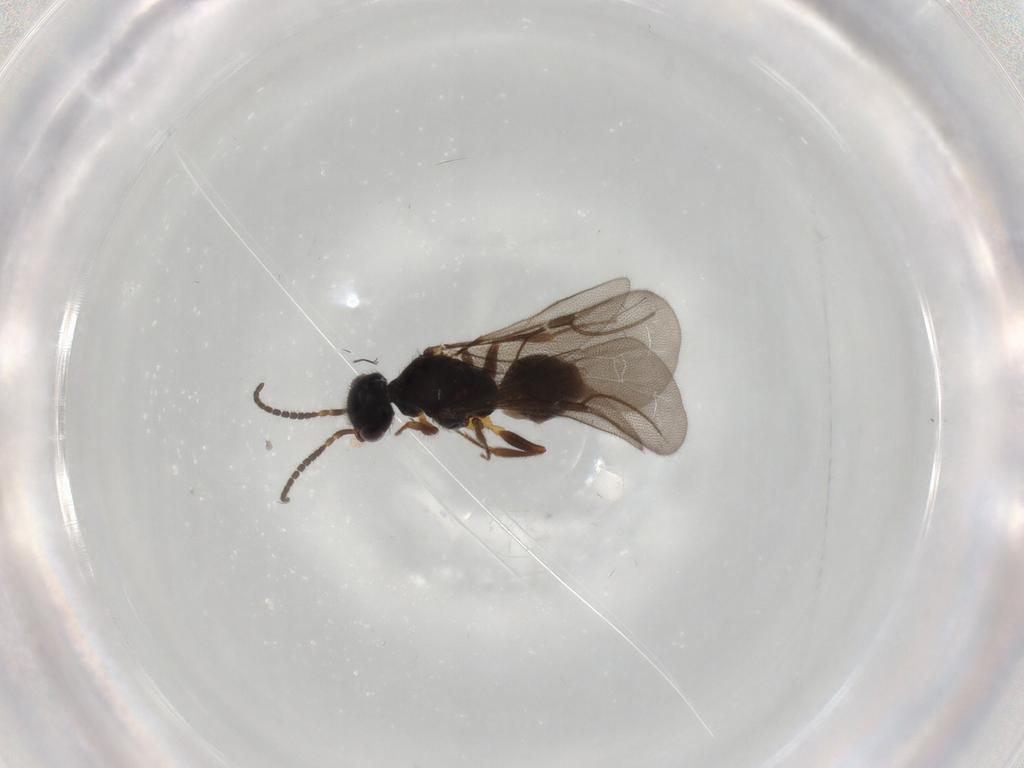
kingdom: Animalia
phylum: Arthropoda
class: Insecta
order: Hymenoptera
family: Bethylidae
